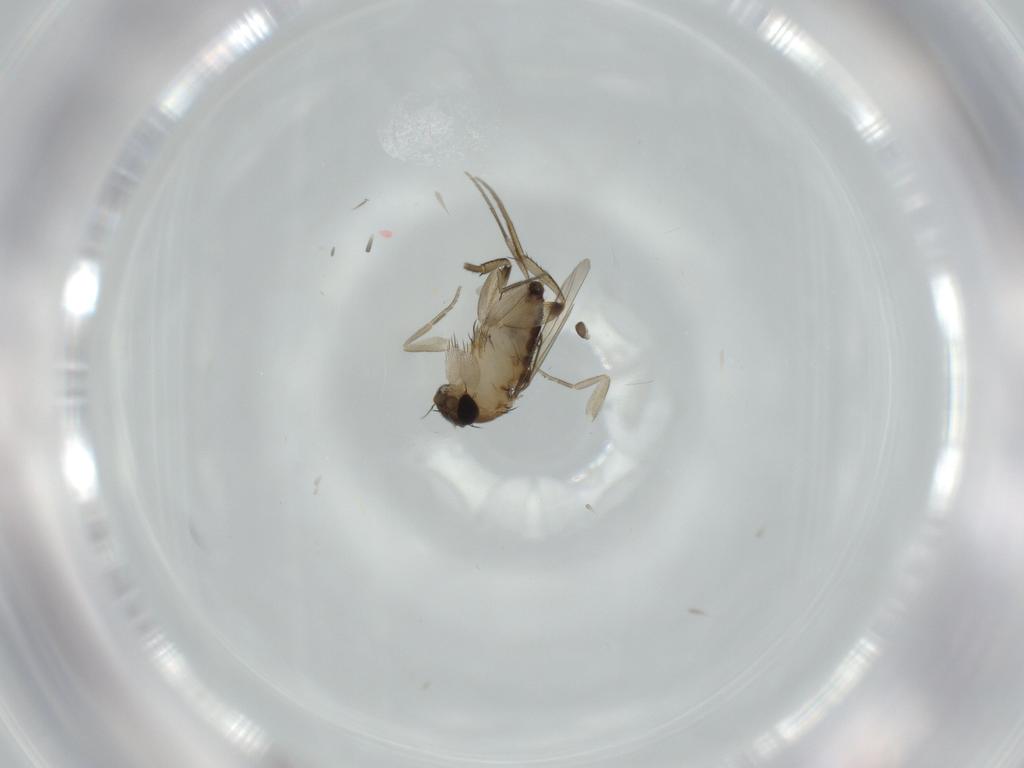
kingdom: Animalia
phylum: Arthropoda
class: Insecta
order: Diptera
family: Phoridae
